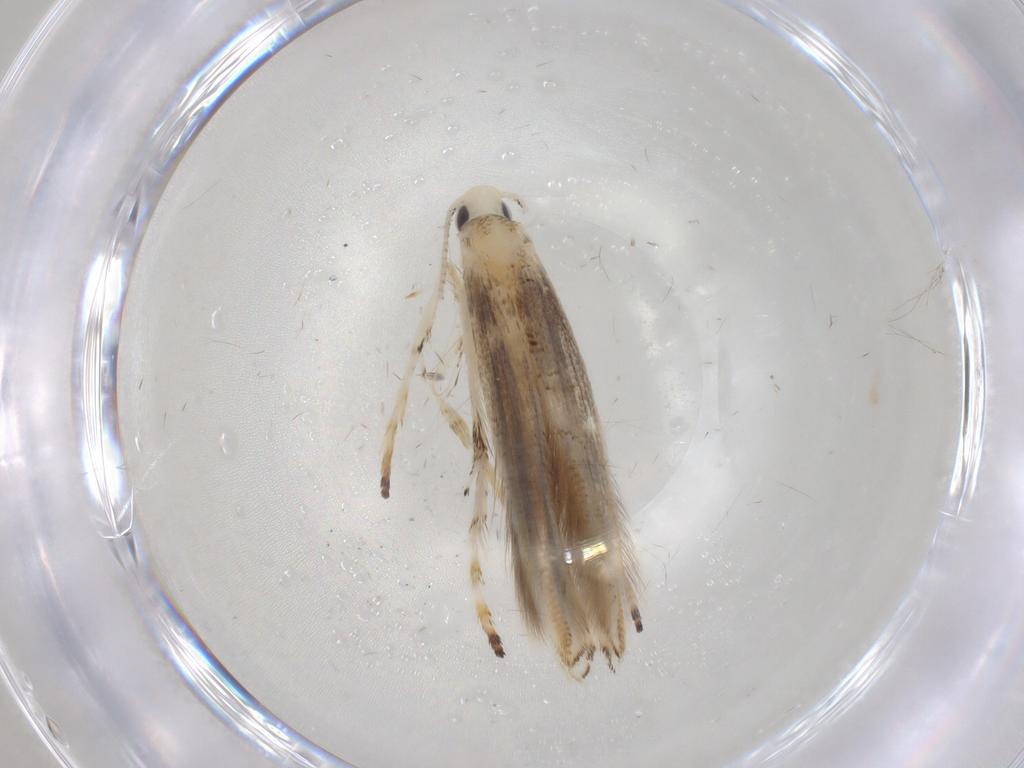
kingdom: Animalia
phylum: Arthropoda
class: Insecta
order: Lepidoptera
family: Gracillariidae
